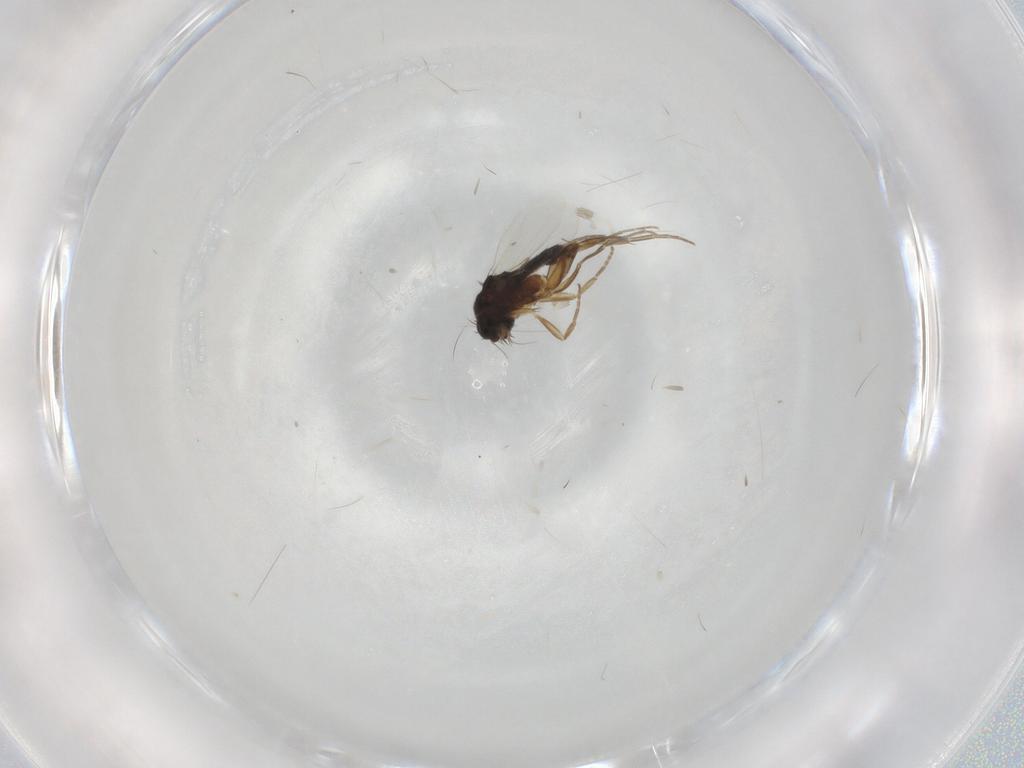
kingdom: Animalia
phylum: Arthropoda
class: Insecta
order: Diptera
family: Phoridae
